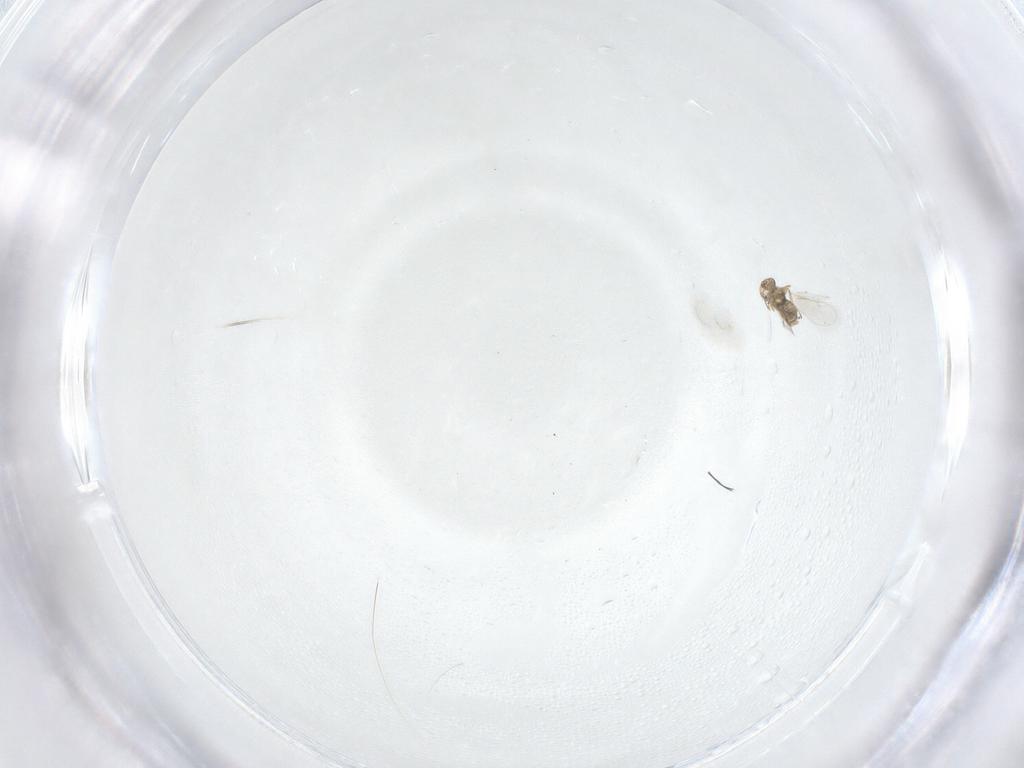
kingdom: Animalia
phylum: Arthropoda
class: Insecta
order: Hymenoptera
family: Eulophidae
